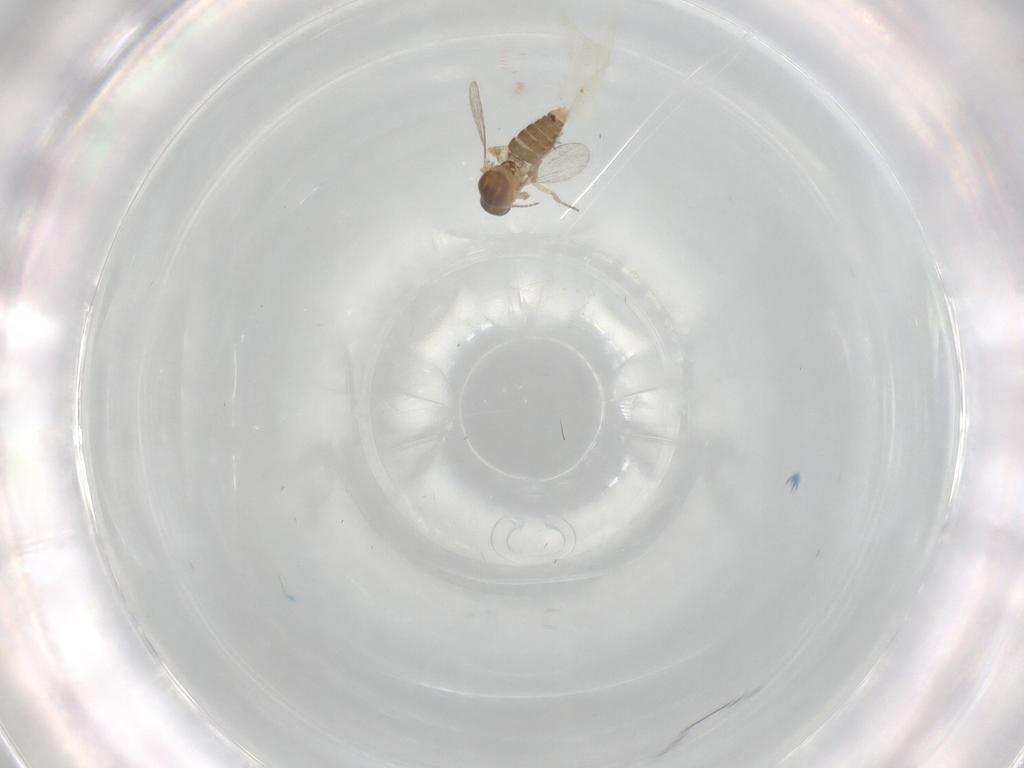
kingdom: Animalia
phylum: Arthropoda
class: Insecta
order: Diptera
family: Ceratopogonidae
